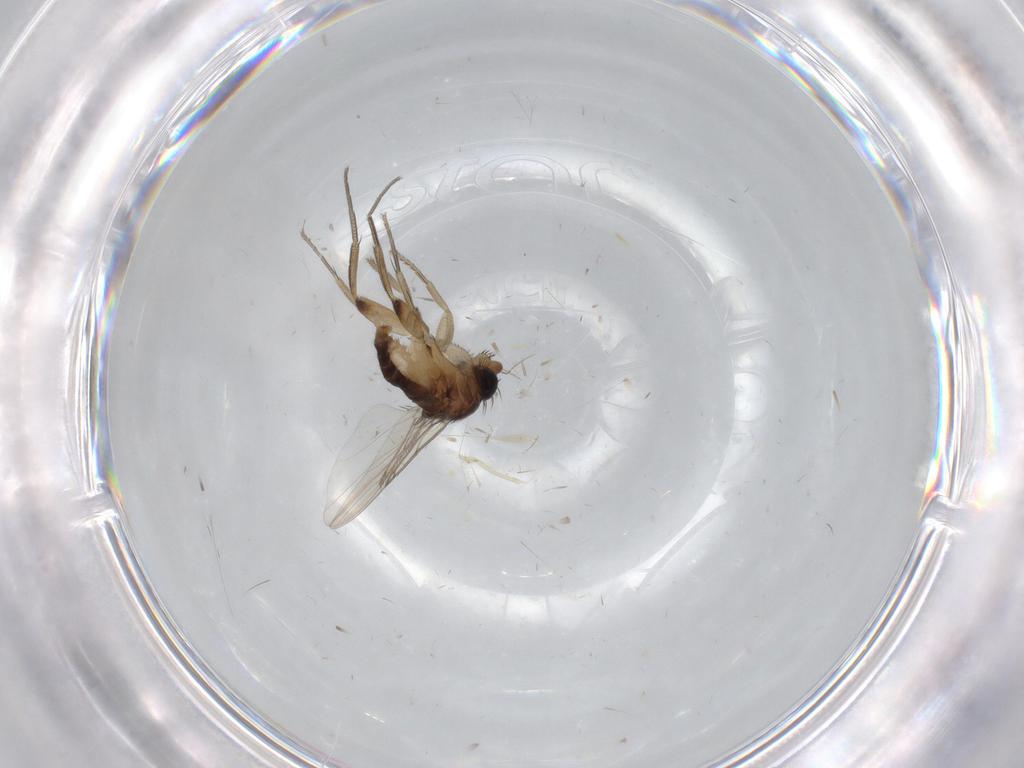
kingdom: Animalia
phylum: Arthropoda
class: Insecta
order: Diptera
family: Phoridae
